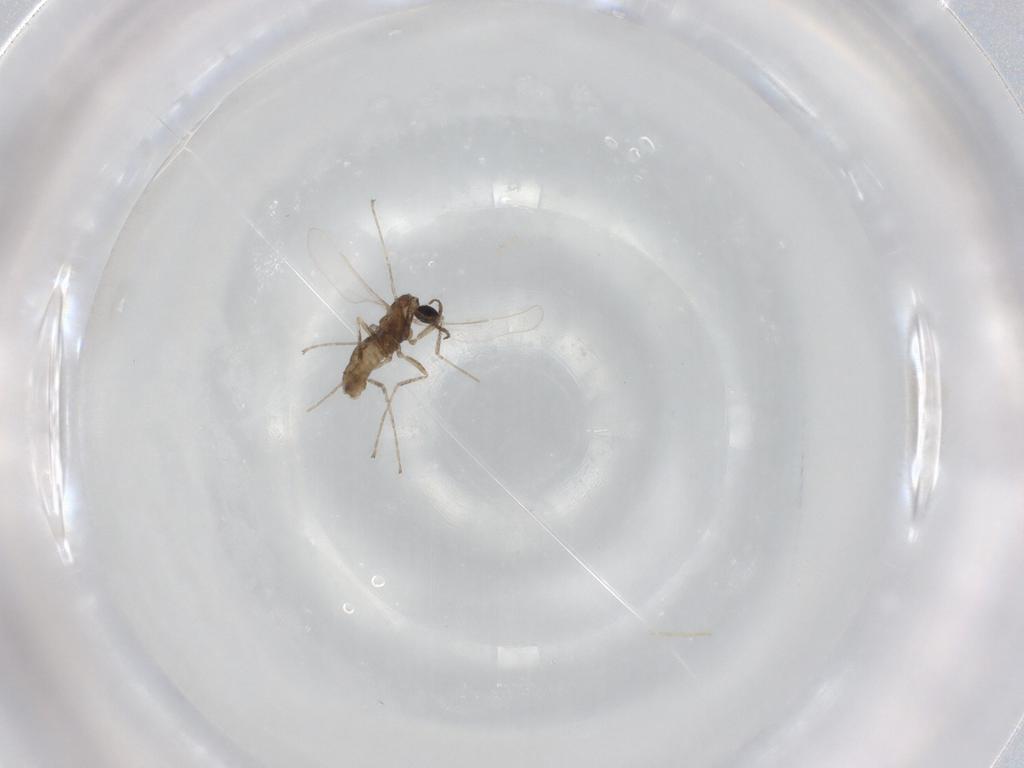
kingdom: Animalia
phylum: Arthropoda
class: Insecta
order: Diptera
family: Cecidomyiidae
